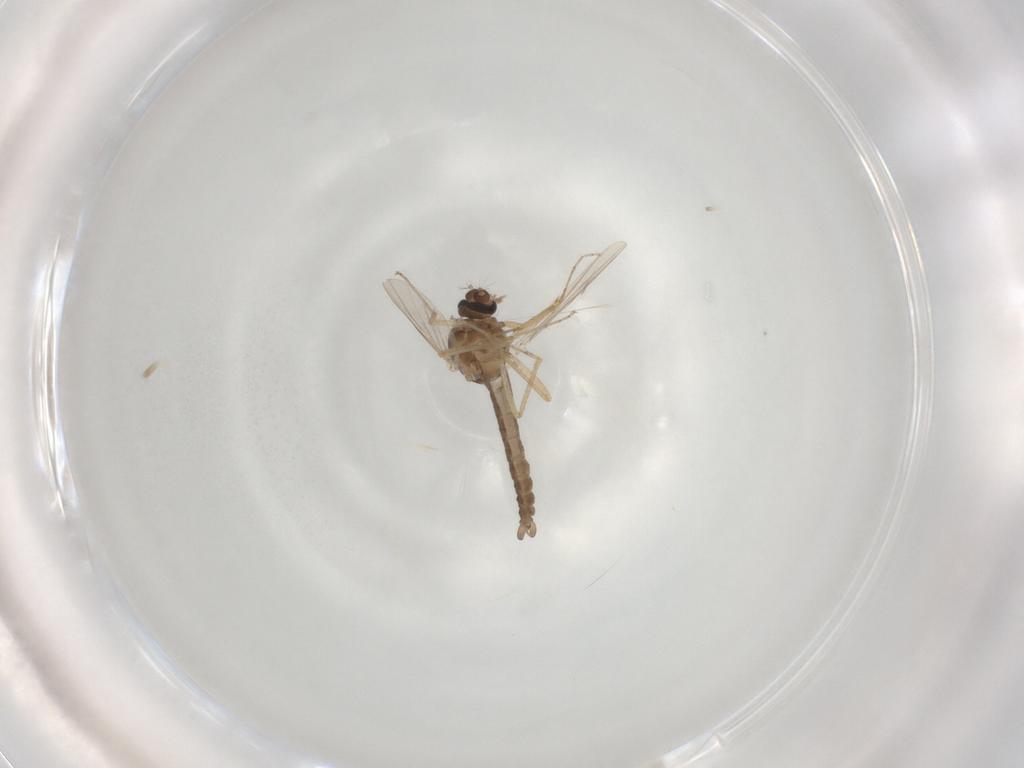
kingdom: Animalia
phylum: Arthropoda
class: Insecta
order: Diptera
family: Ceratopogonidae
